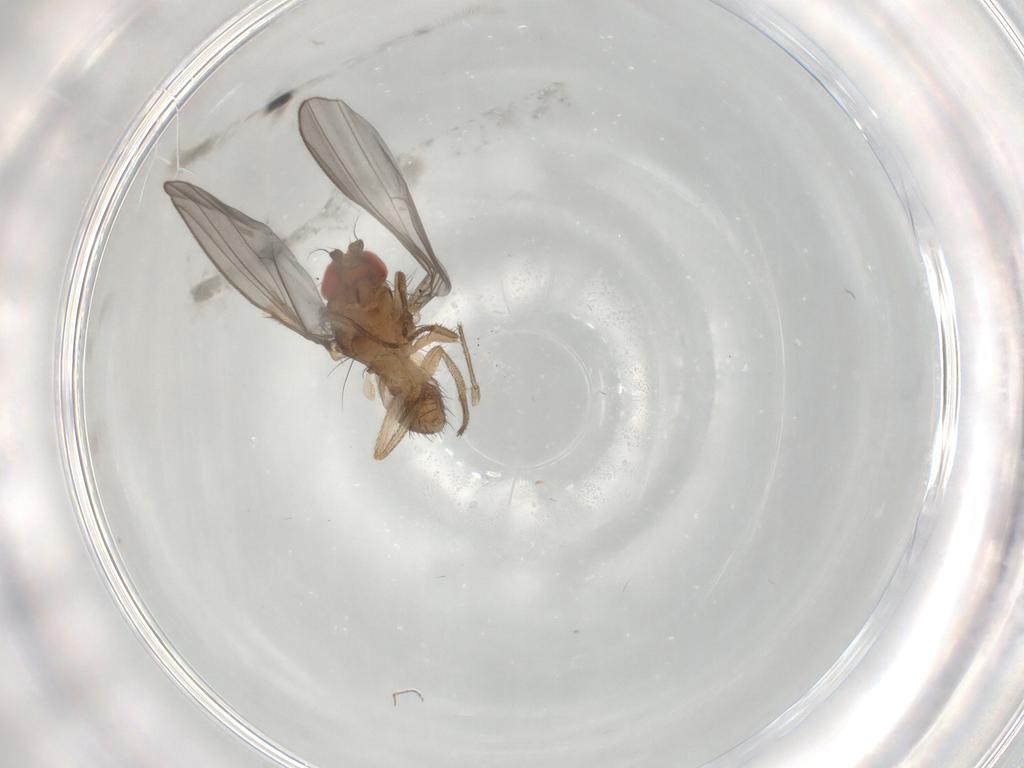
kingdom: Animalia
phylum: Arthropoda
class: Insecta
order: Diptera
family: Drosophilidae
